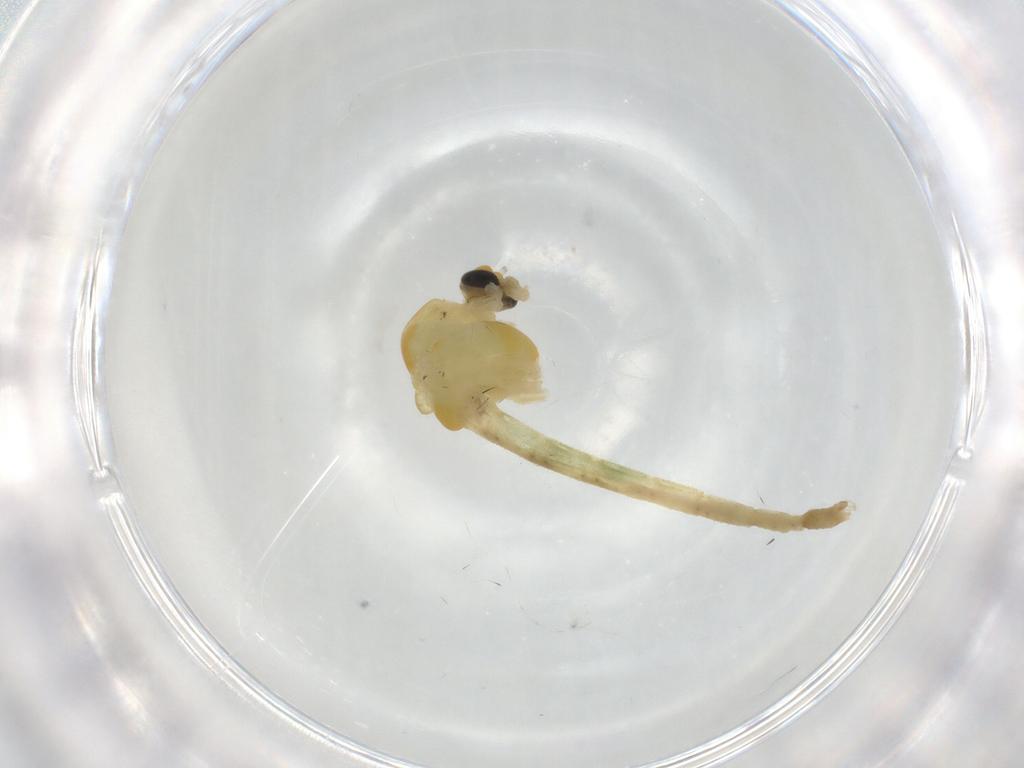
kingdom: Animalia
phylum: Arthropoda
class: Insecta
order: Diptera
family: Chironomidae
